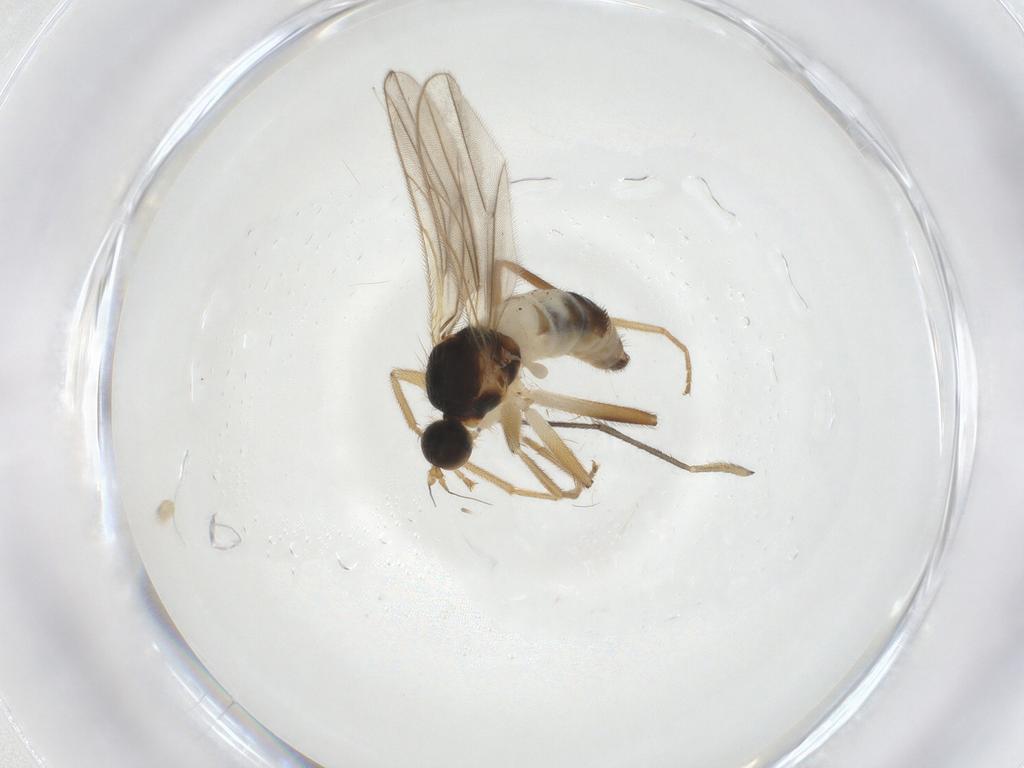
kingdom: Animalia
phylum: Arthropoda
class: Insecta
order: Diptera
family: Hybotidae
